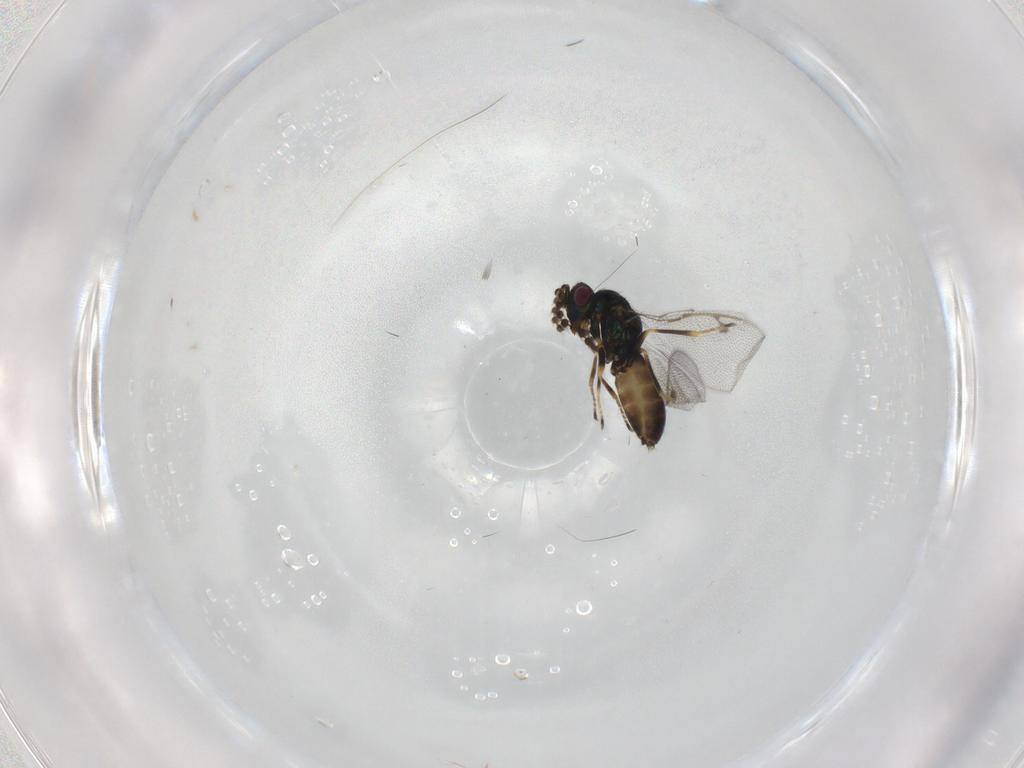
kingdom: Animalia
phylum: Arthropoda
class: Insecta
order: Hymenoptera
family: Pirenidae
